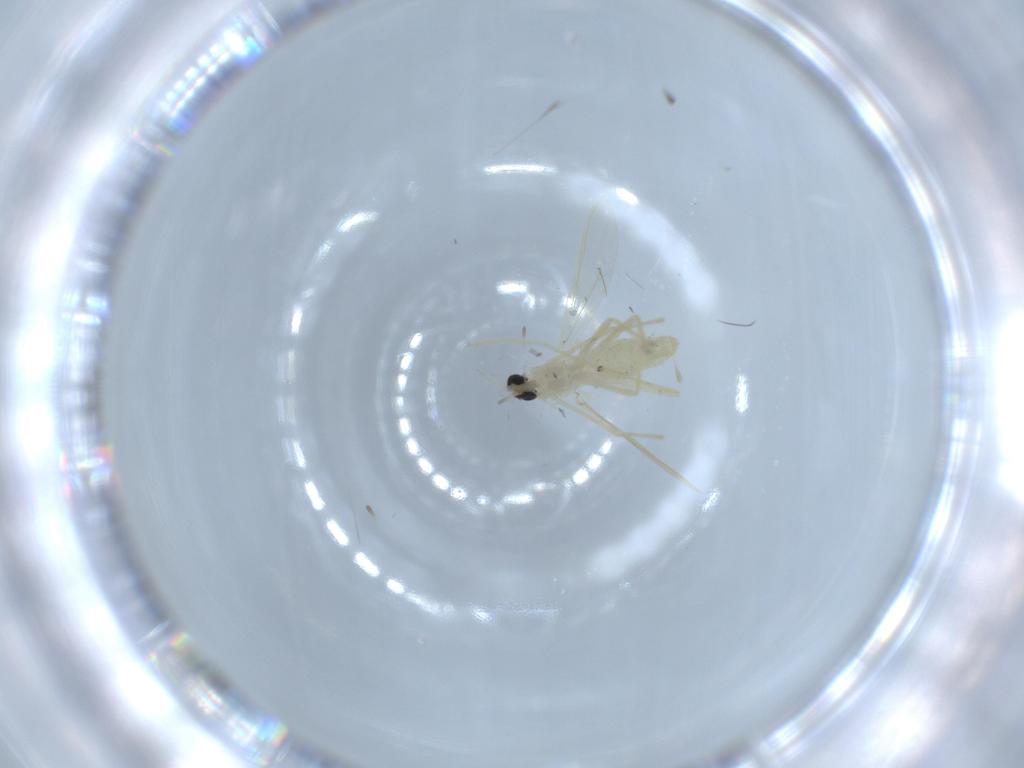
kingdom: Animalia
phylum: Arthropoda
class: Insecta
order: Diptera
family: Chironomidae
